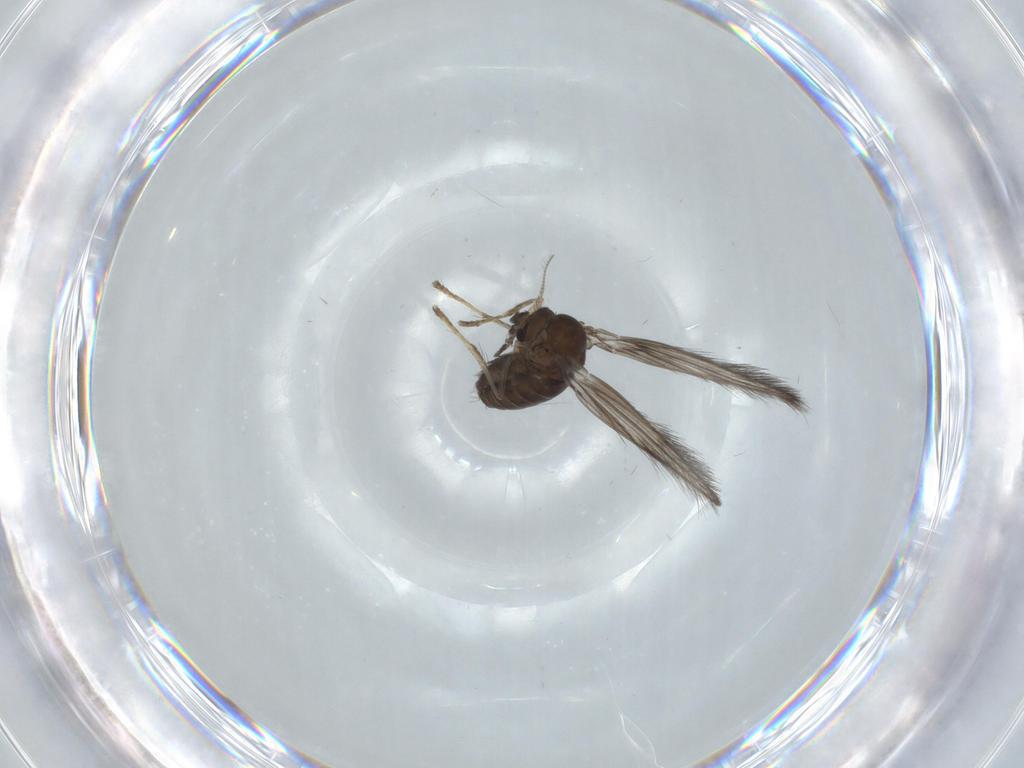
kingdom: Animalia
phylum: Arthropoda
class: Insecta
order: Diptera
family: Psychodidae
